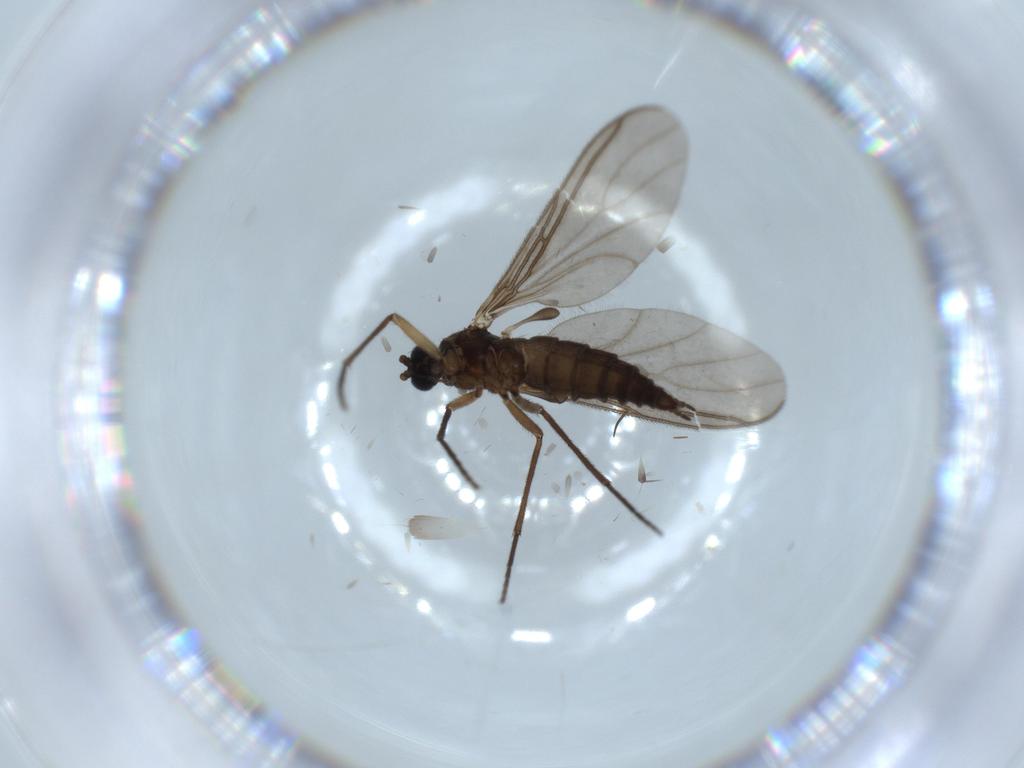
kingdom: Animalia
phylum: Arthropoda
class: Insecta
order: Diptera
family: Sciaridae
